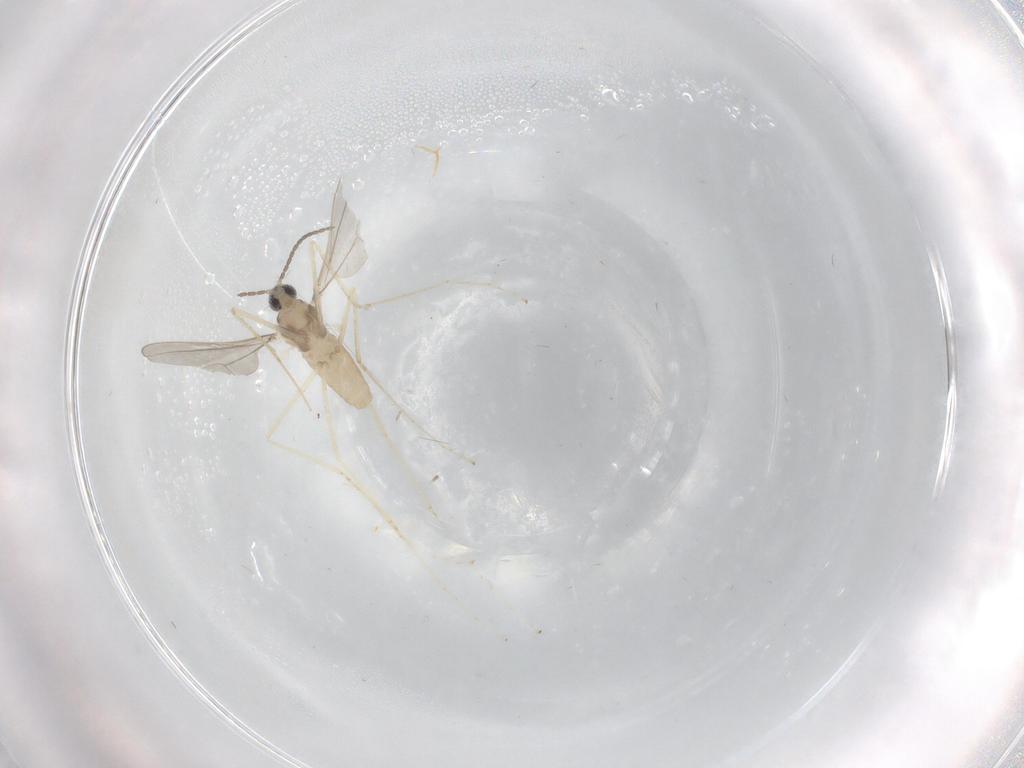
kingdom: Animalia
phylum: Arthropoda
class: Insecta
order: Diptera
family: Cecidomyiidae
